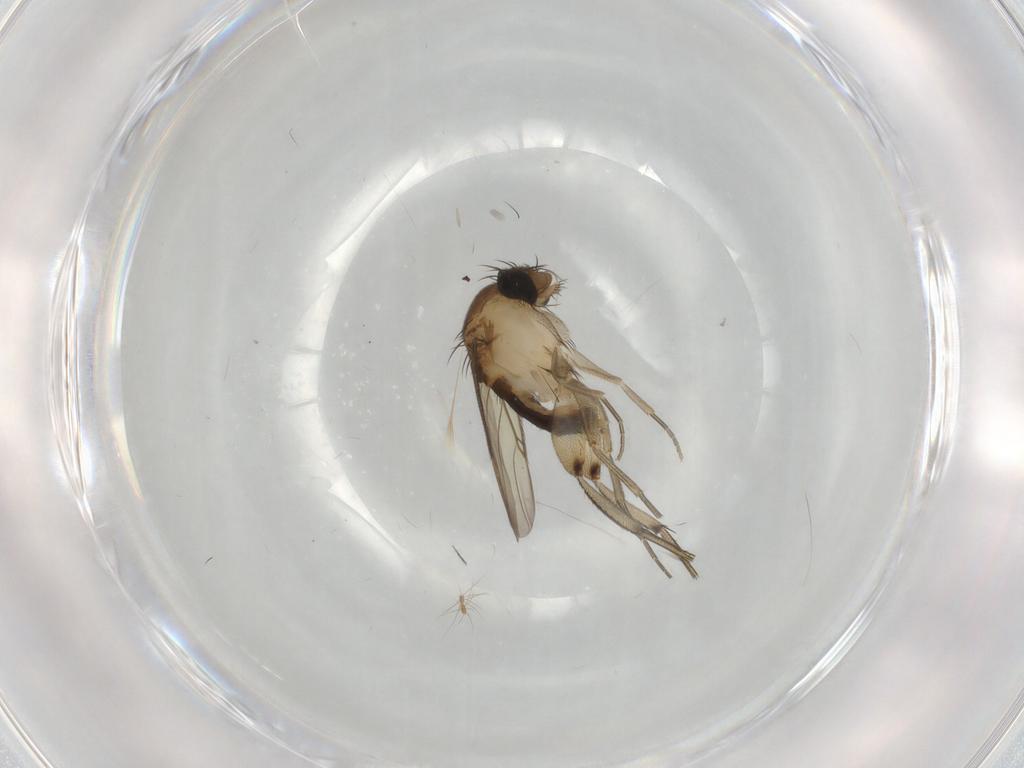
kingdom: Animalia
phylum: Arthropoda
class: Insecta
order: Diptera
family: Phoridae
